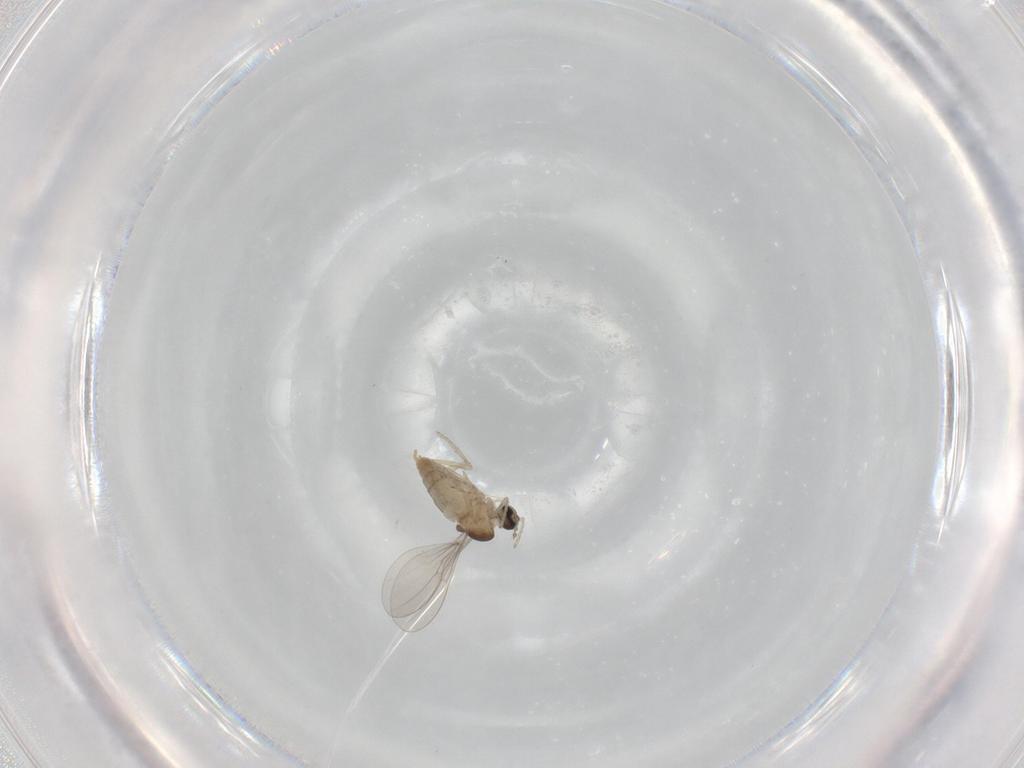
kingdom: Animalia
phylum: Arthropoda
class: Insecta
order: Diptera
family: Cecidomyiidae
